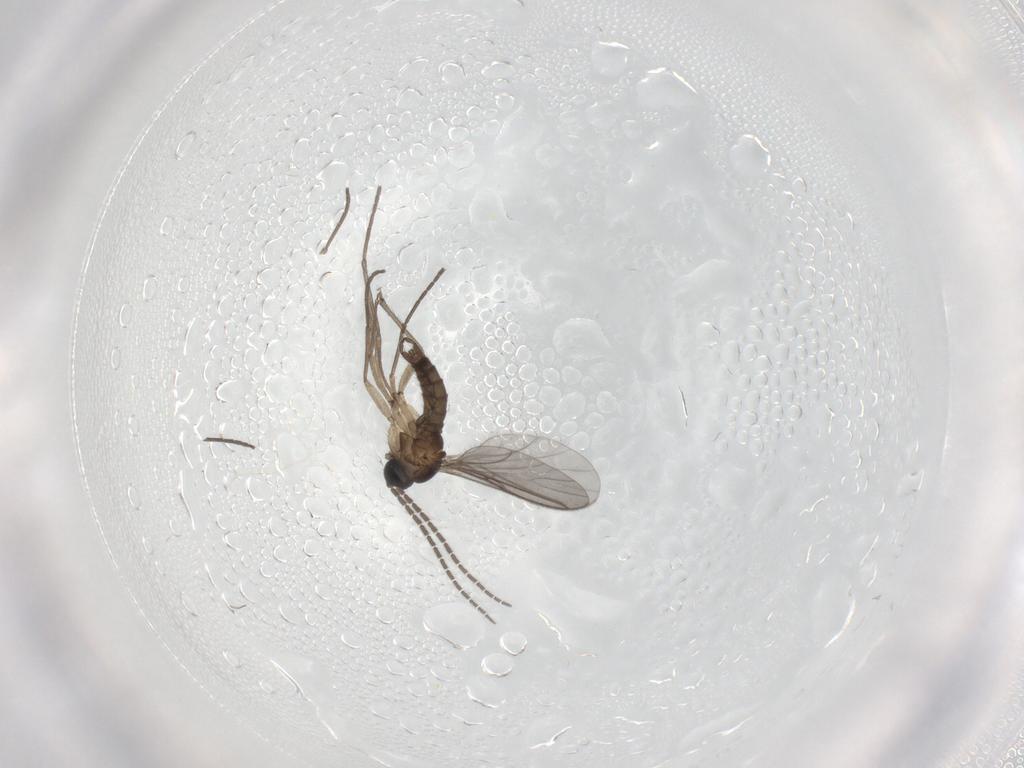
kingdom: Animalia
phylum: Arthropoda
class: Insecta
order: Diptera
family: Sciaridae
